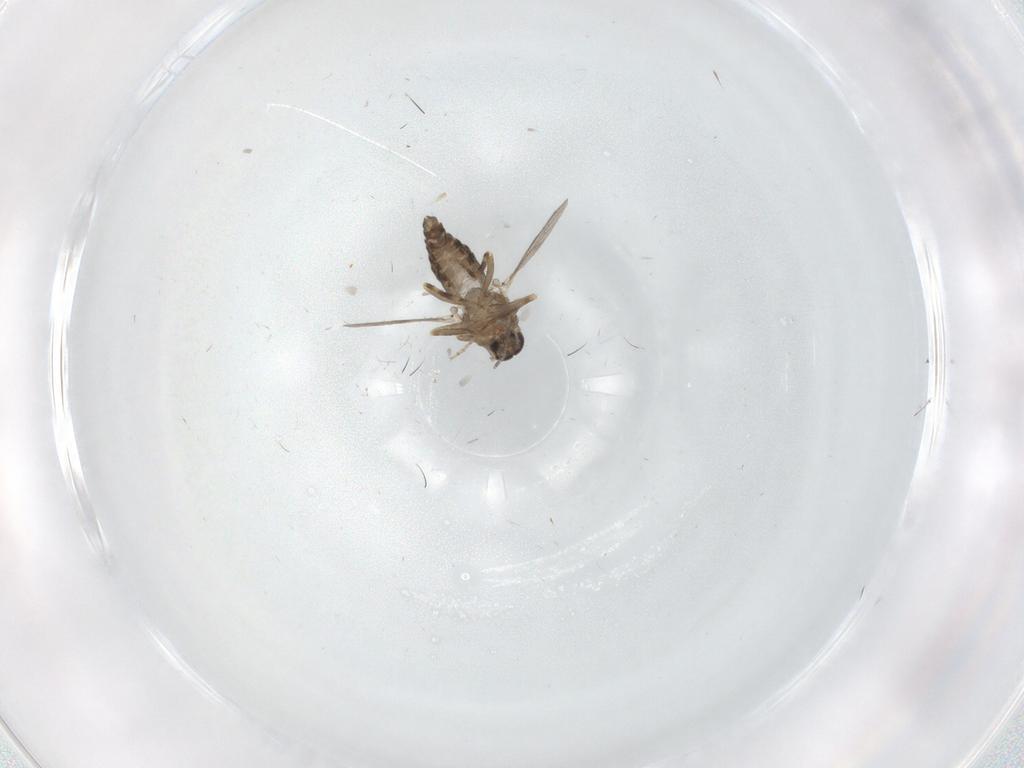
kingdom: Animalia
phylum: Arthropoda
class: Insecta
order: Diptera
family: Ceratopogonidae
